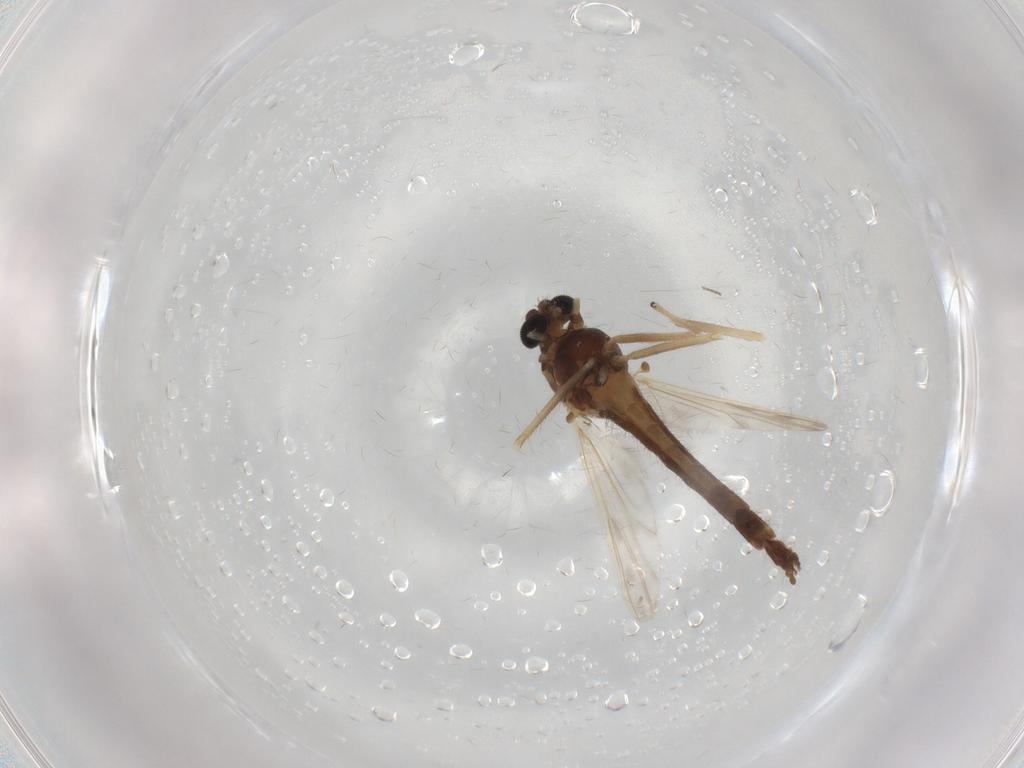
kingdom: Animalia
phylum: Arthropoda
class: Insecta
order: Diptera
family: Chironomidae
